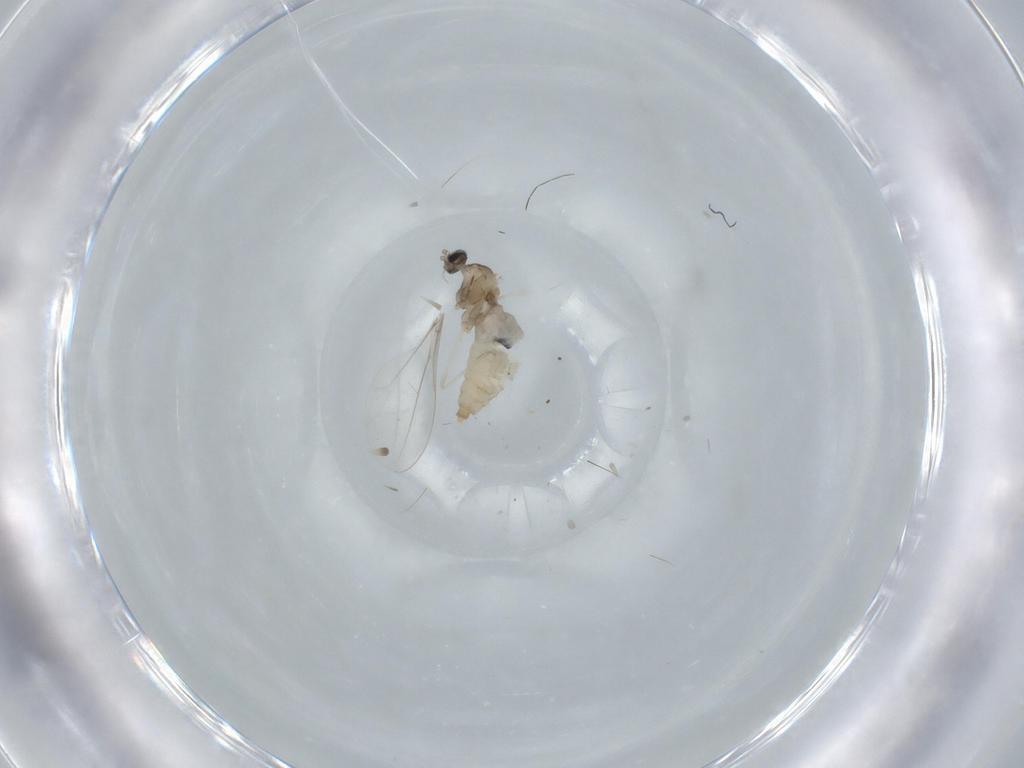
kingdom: Animalia
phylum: Arthropoda
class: Insecta
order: Diptera
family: Cecidomyiidae
